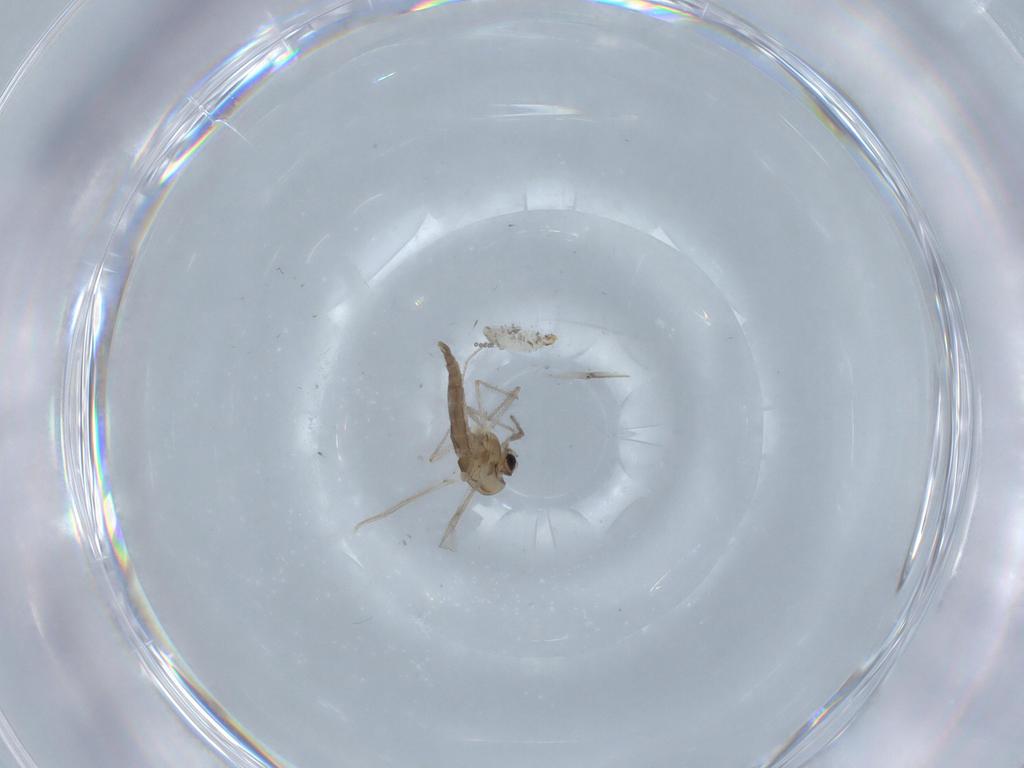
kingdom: Animalia
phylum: Arthropoda
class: Insecta
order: Diptera
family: Chironomidae
